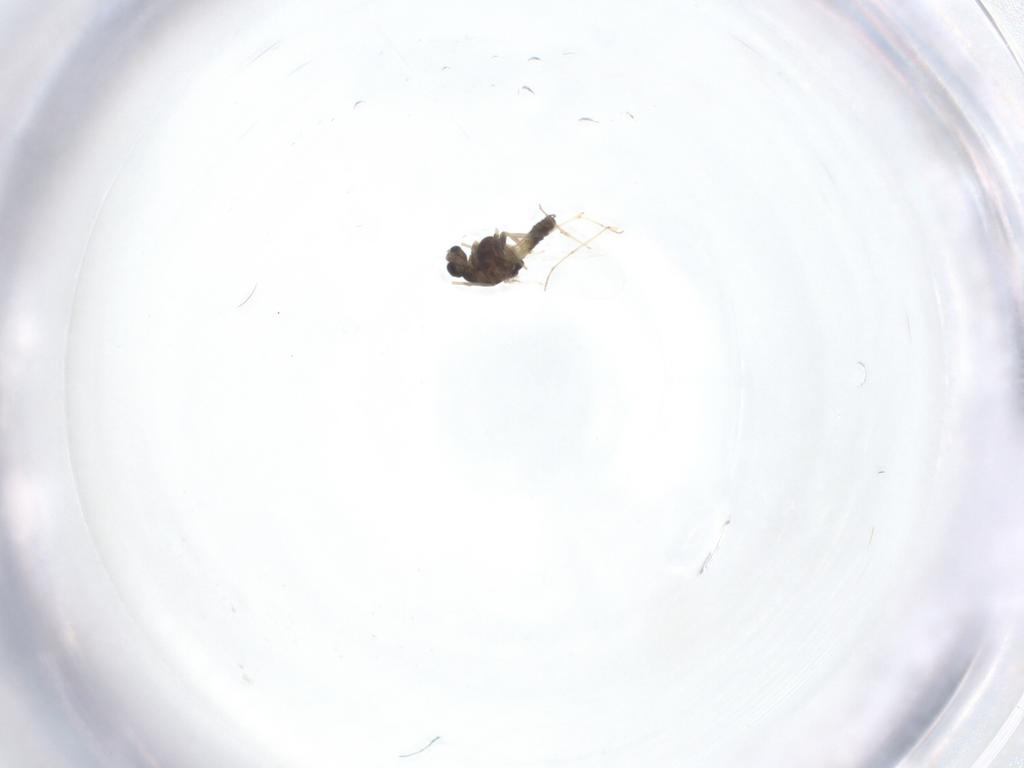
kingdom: Animalia
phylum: Arthropoda
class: Insecta
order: Diptera
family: Chironomidae
